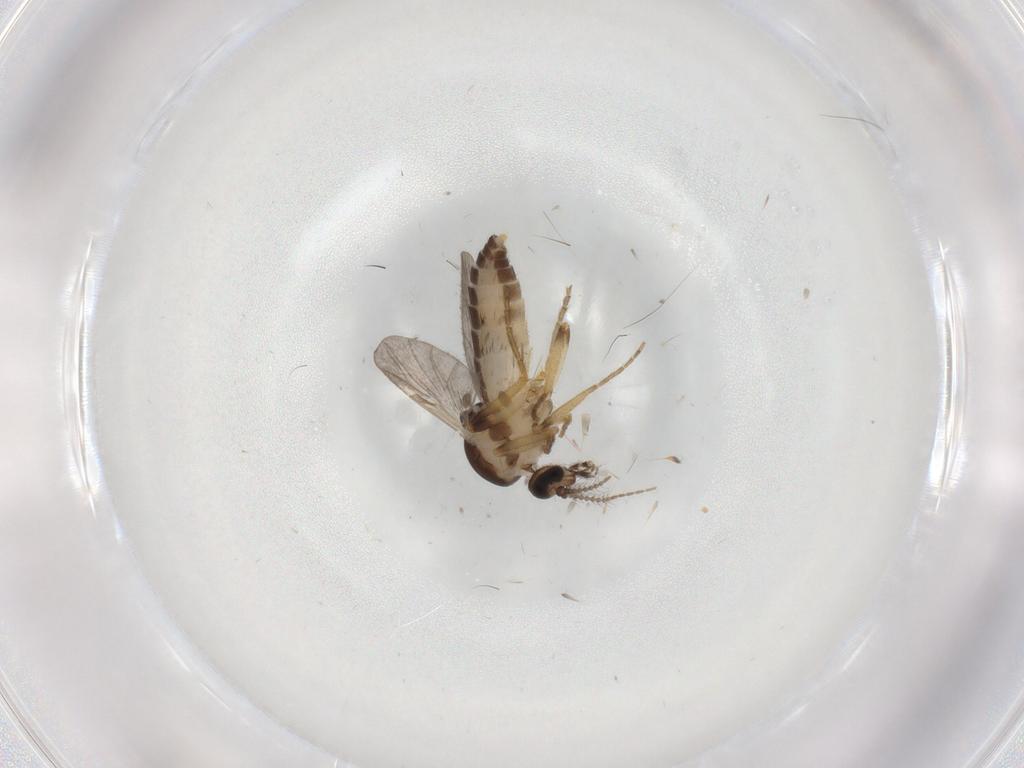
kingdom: Animalia
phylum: Arthropoda
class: Insecta
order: Diptera
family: Ceratopogonidae
